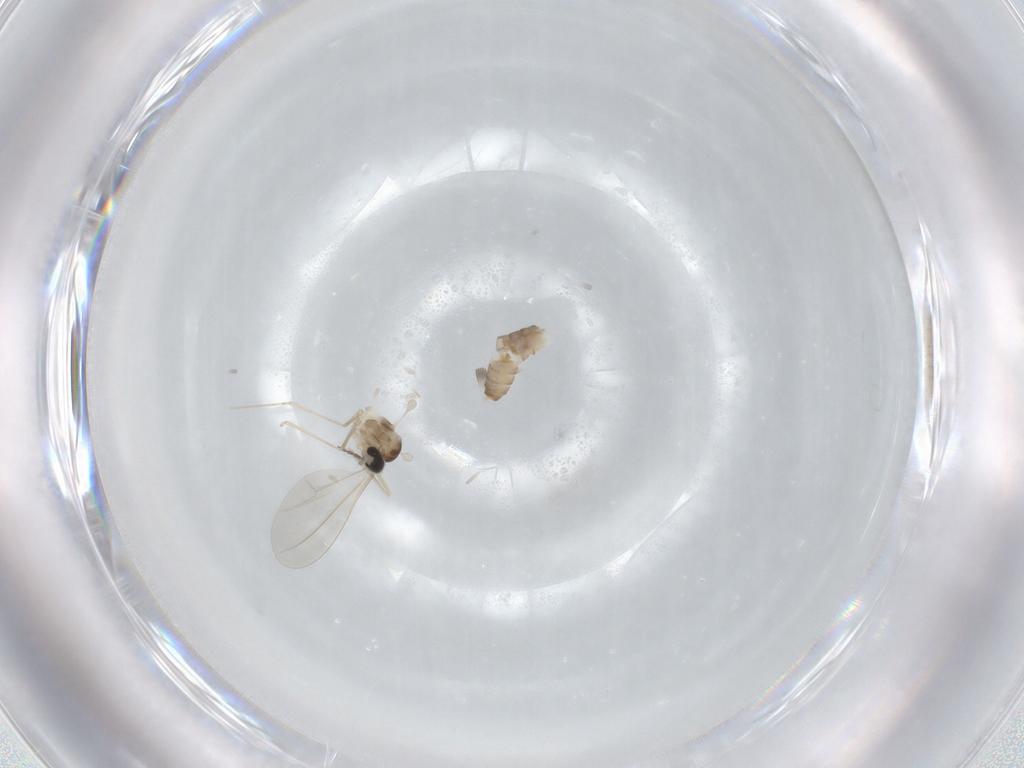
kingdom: Animalia
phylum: Arthropoda
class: Insecta
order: Diptera
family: Cecidomyiidae
